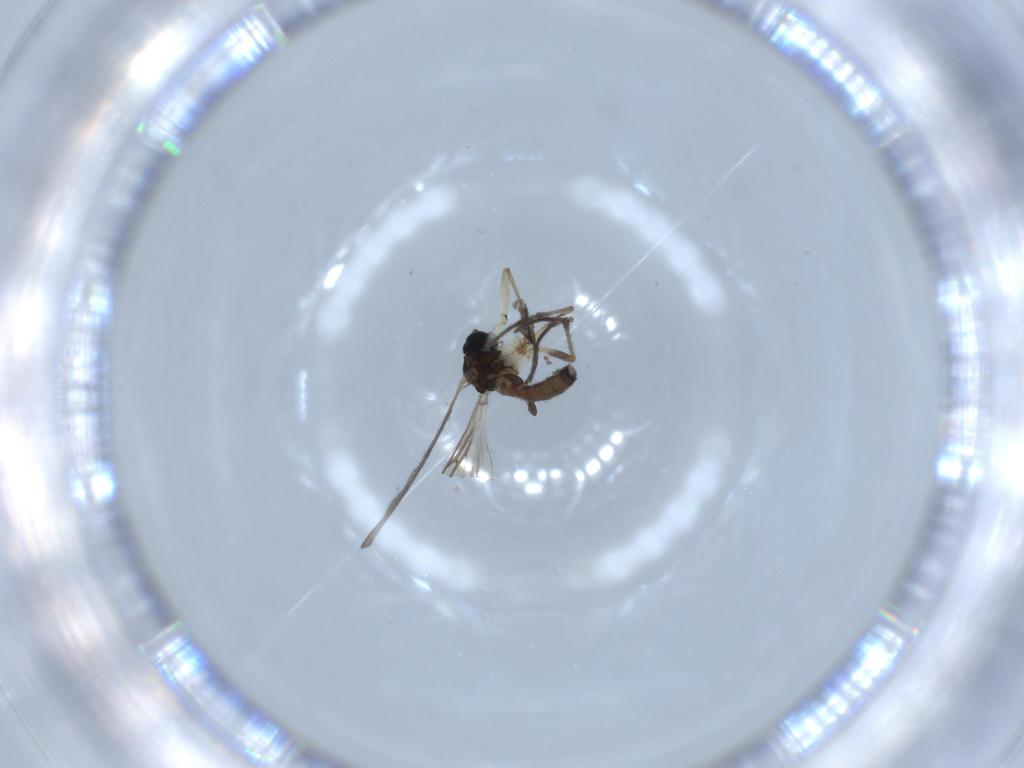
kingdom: Animalia
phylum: Arthropoda
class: Insecta
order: Diptera
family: Sciaridae
